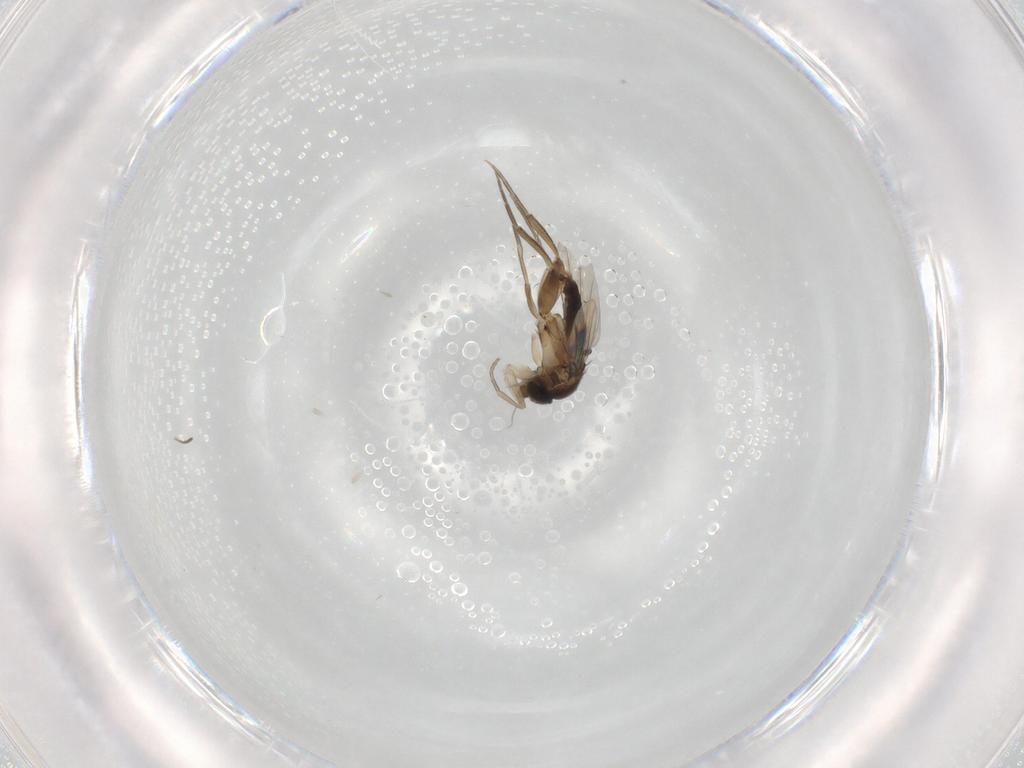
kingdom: Animalia
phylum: Arthropoda
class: Insecta
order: Diptera
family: Phoridae
